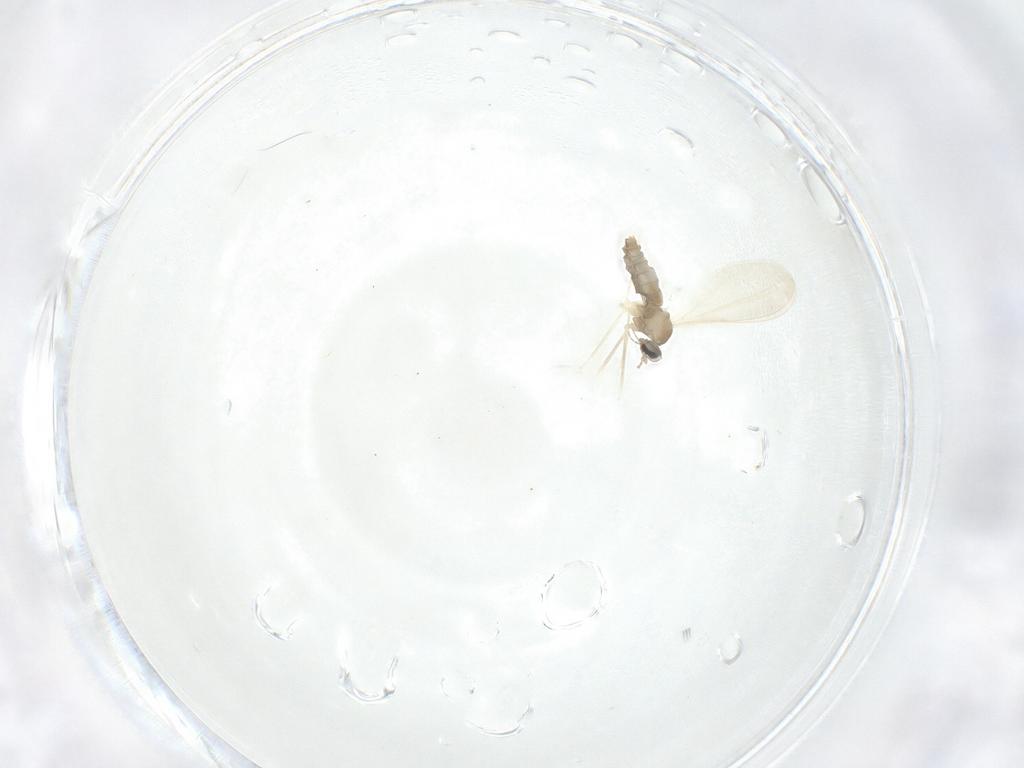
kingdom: Animalia
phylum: Arthropoda
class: Insecta
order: Diptera
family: Cecidomyiidae
